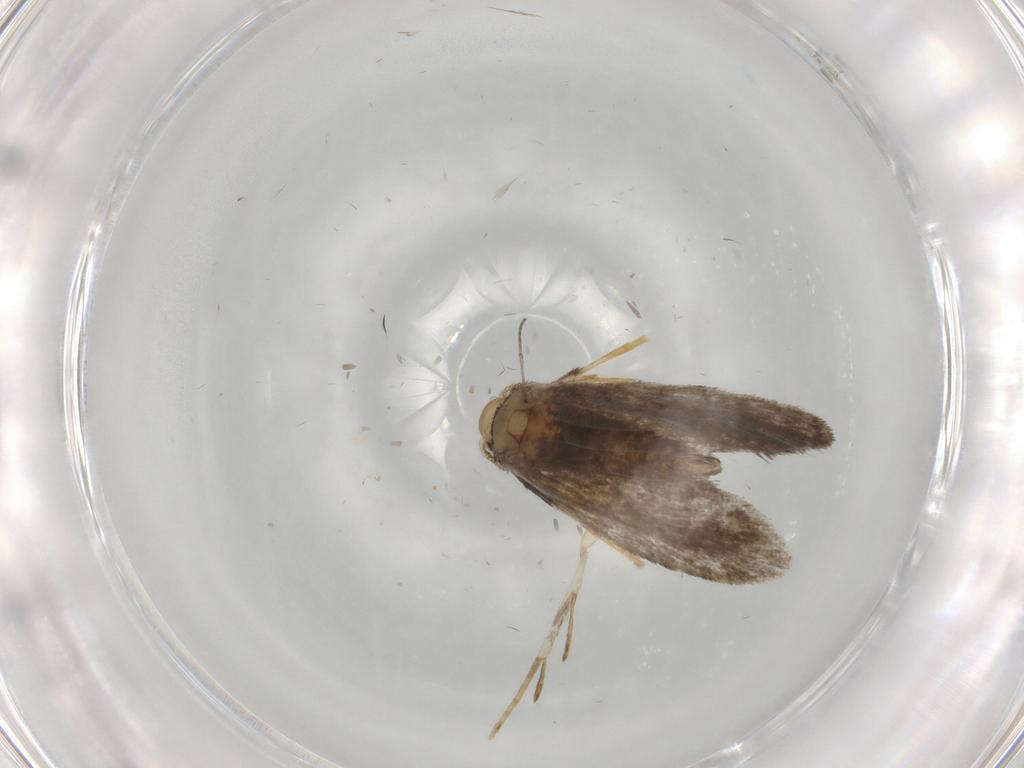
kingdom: Animalia
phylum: Arthropoda
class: Insecta
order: Lepidoptera
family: Psychidae
